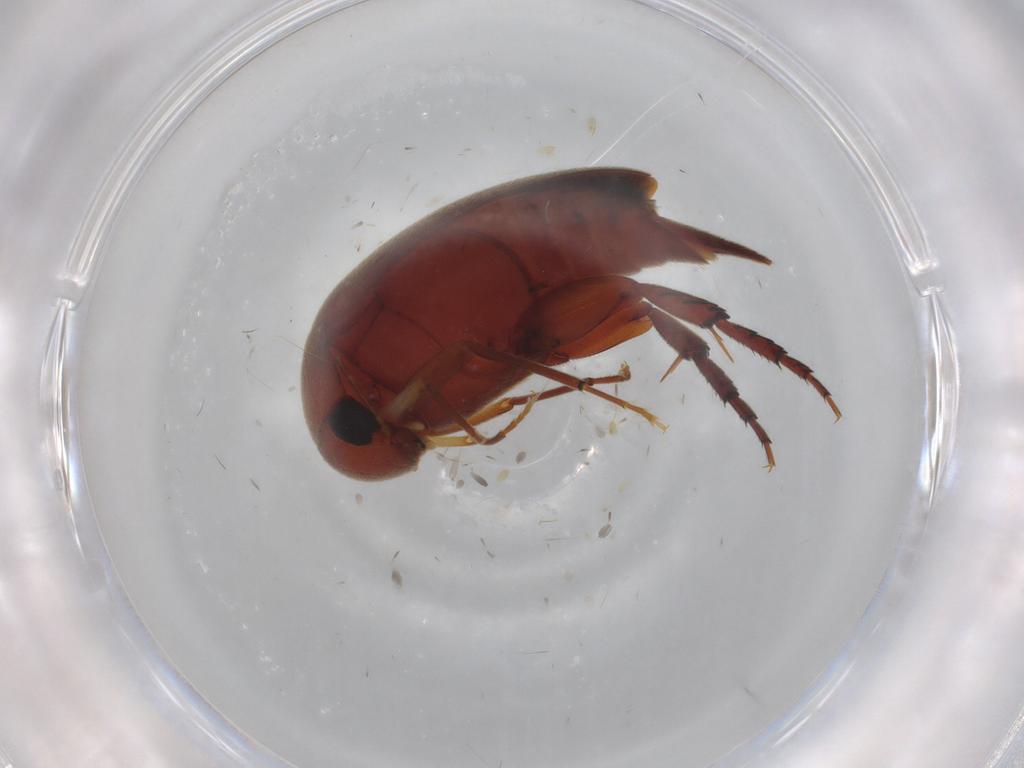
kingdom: Animalia
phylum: Arthropoda
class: Insecta
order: Coleoptera
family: Mordellidae
